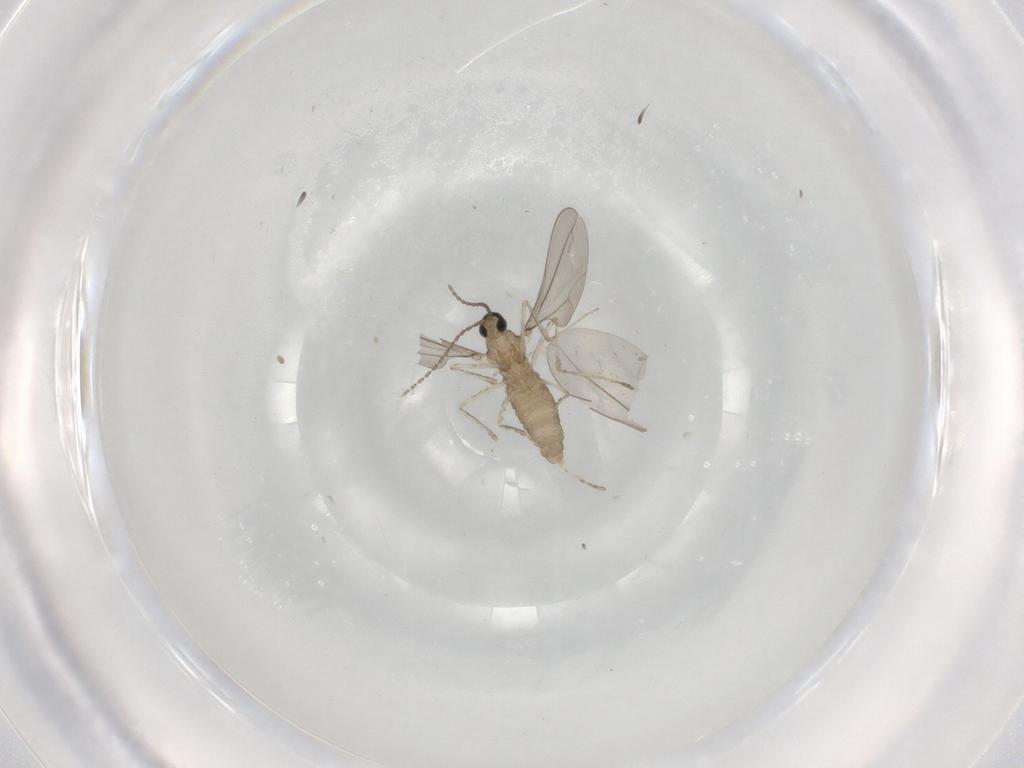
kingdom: Animalia
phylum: Arthropoda
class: Insecta
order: Diptera
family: Cecidomyiidae
